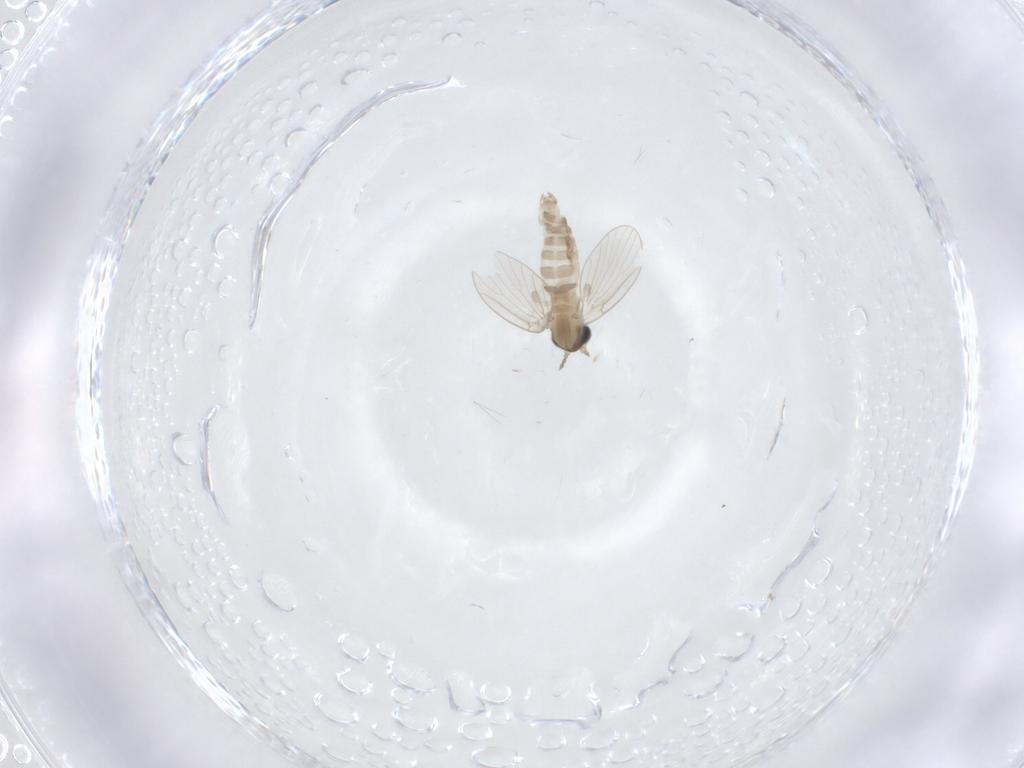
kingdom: Animalia
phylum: Arthropoda
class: Insecta
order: Diptera
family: Psychodidae
